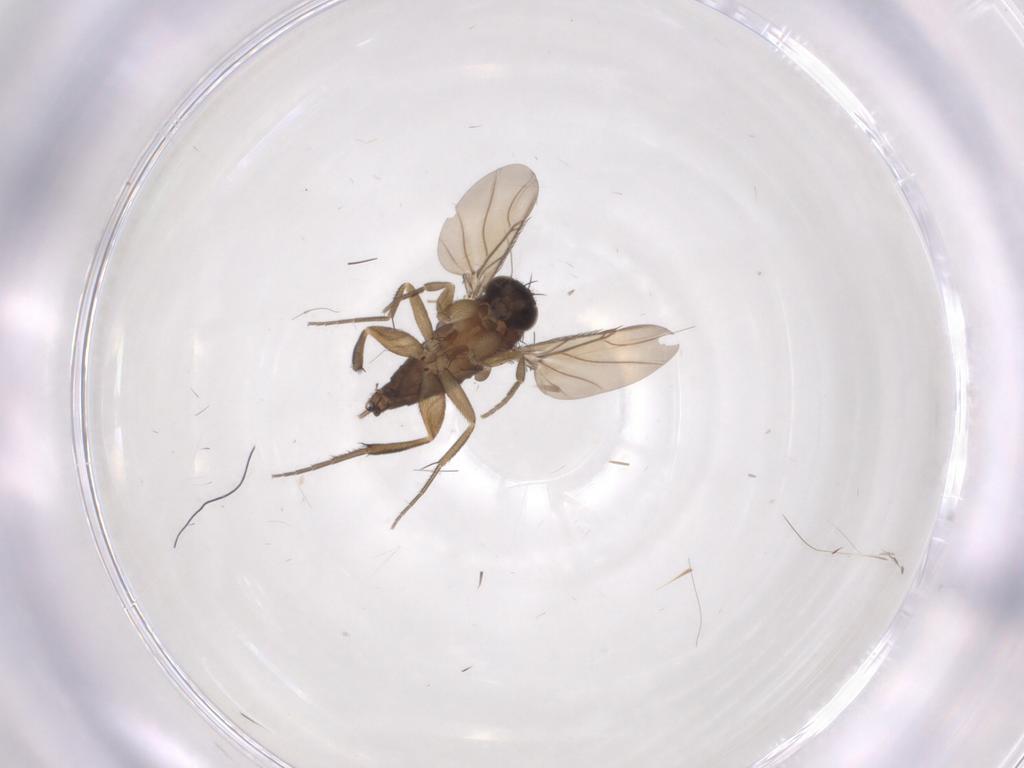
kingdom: Animalia
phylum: Arthropoda
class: Insecta
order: Diptera
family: Phoridae
